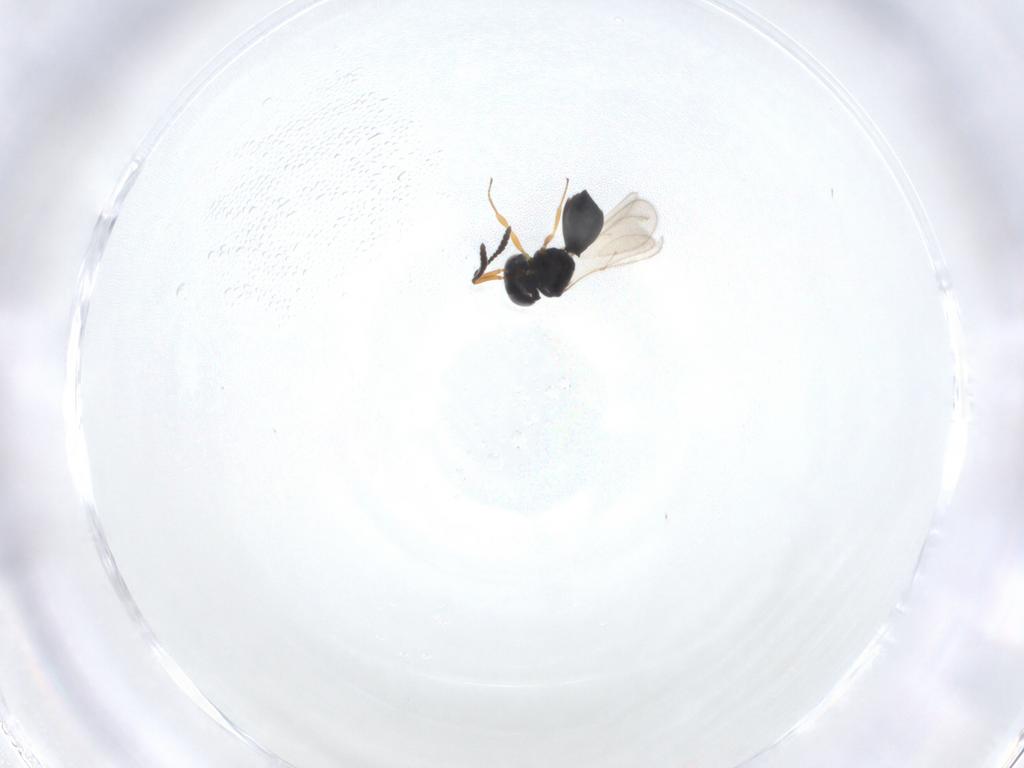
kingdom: Animalia
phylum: Arthropoda
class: Insecta
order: Hymenoptera
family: Formicidae
